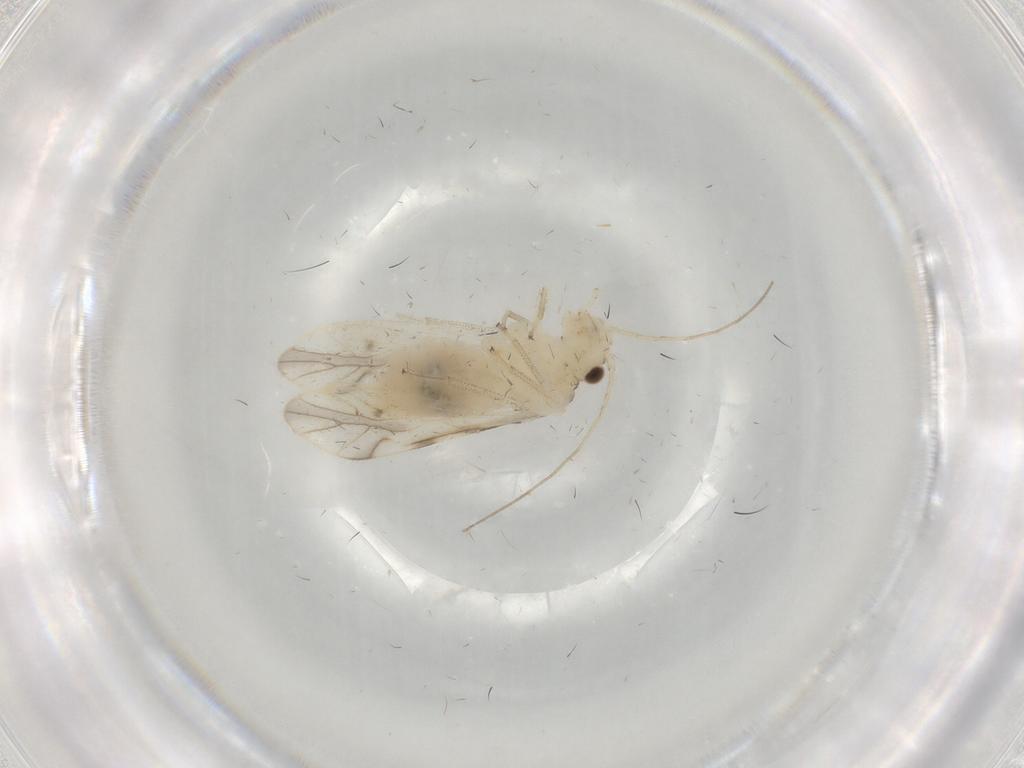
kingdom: Animalia
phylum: Arthropoda
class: Insecta
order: Psocodea
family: Caeciliusidae
